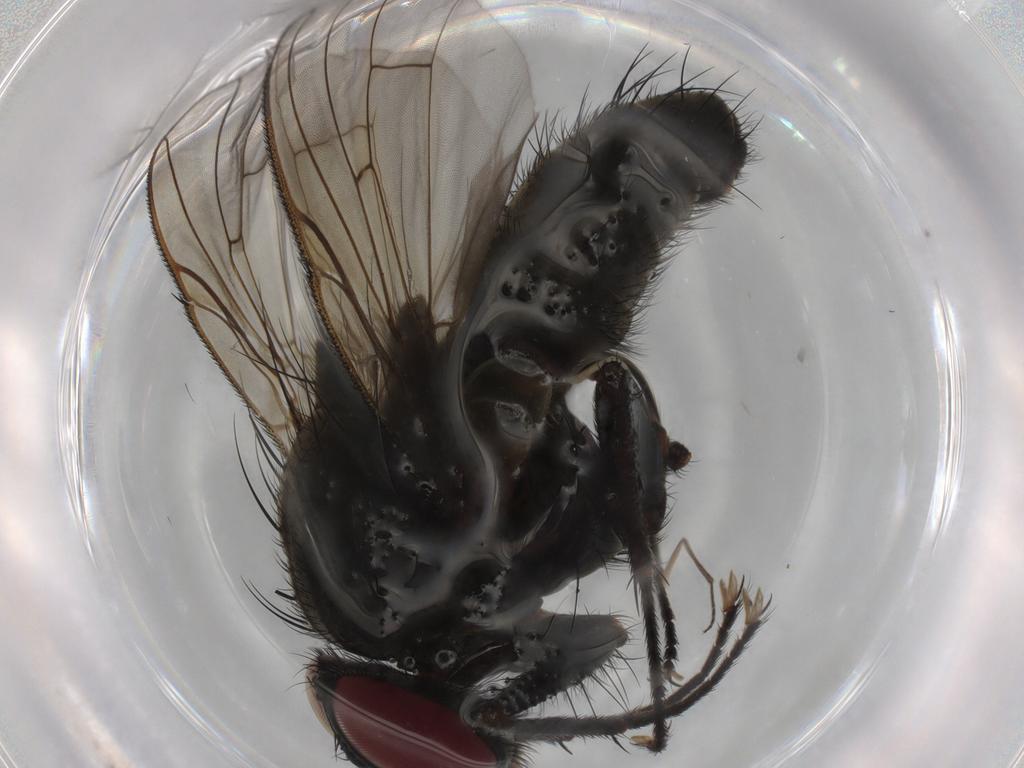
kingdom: Animalia
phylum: Arthropoda
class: Insecta
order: Diptera
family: Muscidae
